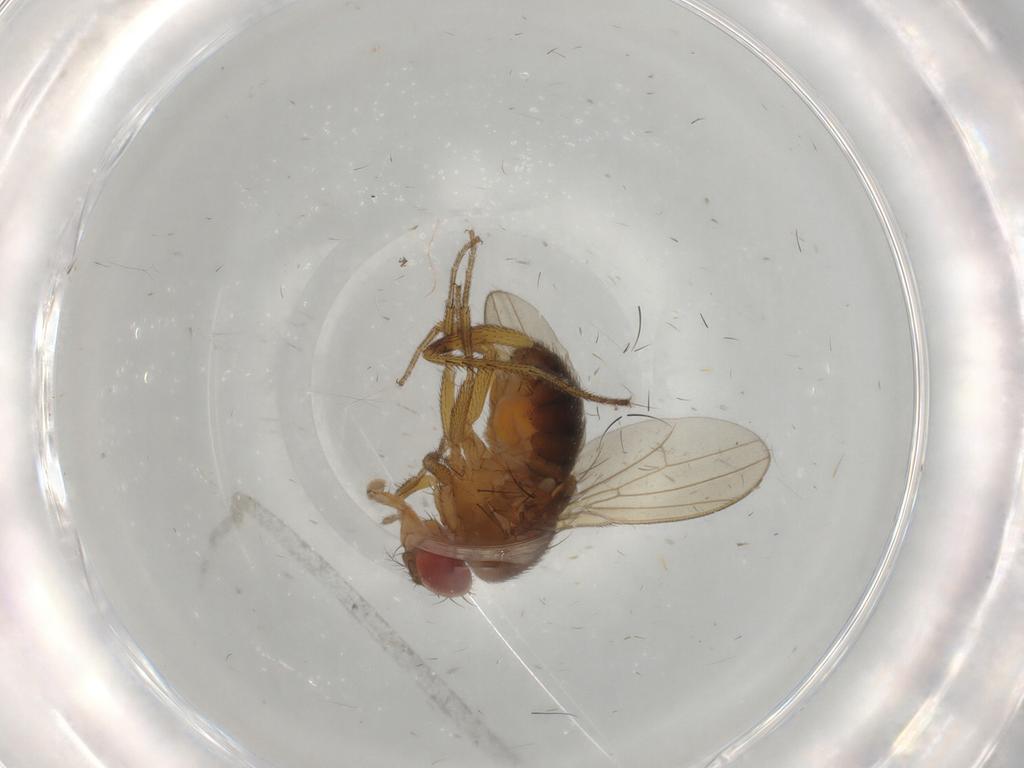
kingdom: Animalia
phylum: Arthropoda
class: Insecta
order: Diptera
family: Drosophilidae
